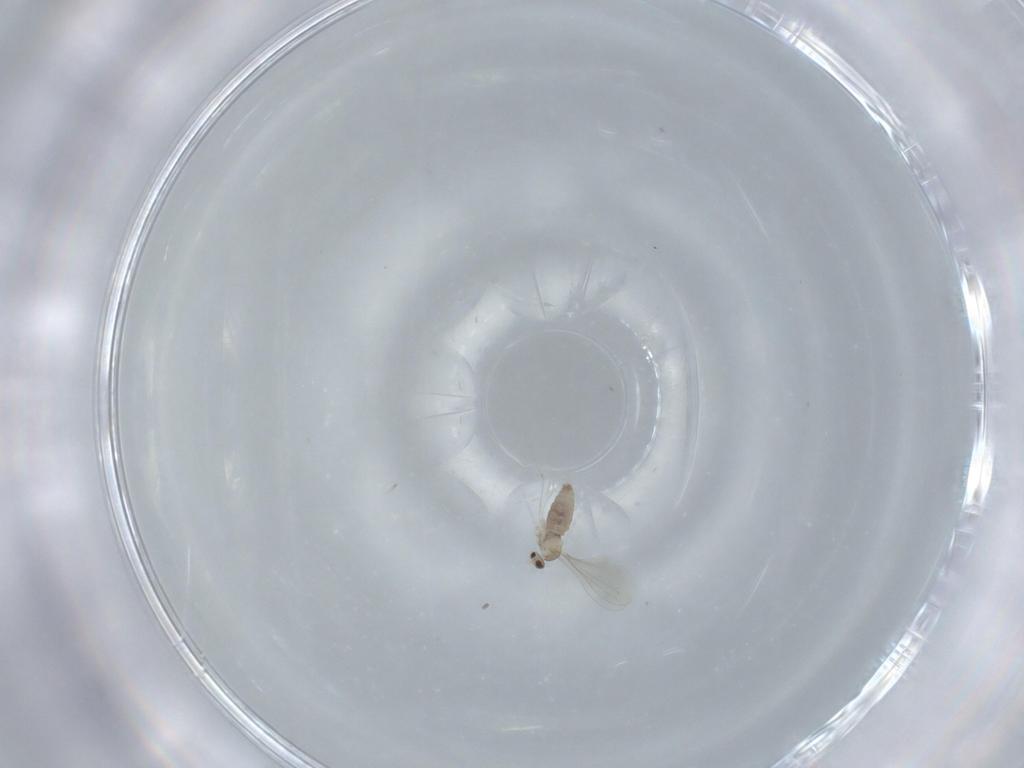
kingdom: Animalia
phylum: Arthropoda
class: Insecta
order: Diptera
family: Cecidomyiidae
